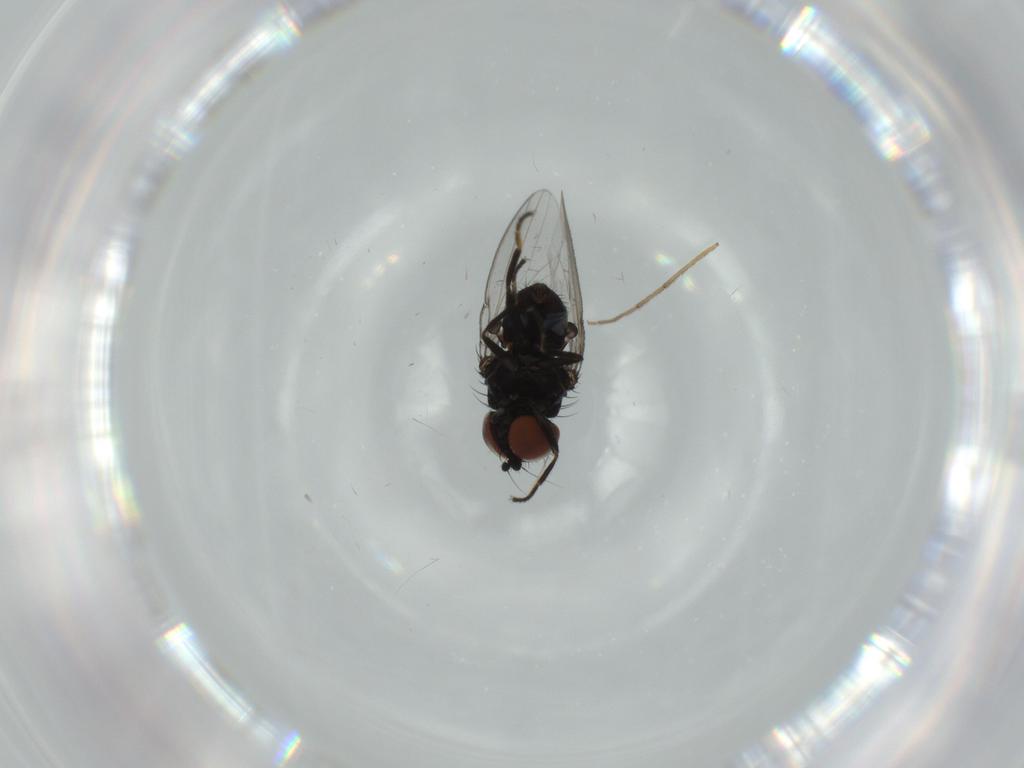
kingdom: Animalia
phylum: Arthropoda
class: Insecta
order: Diptera
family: Milichiidae
